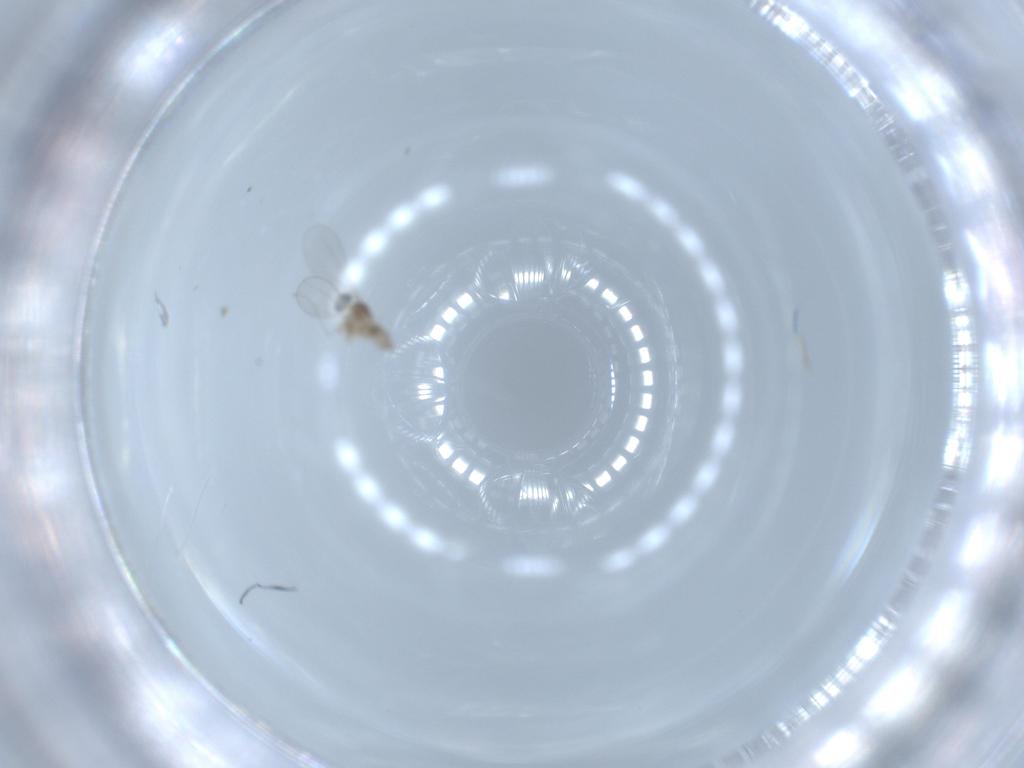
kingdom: Animalia
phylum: Arthropoda
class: Insecta
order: Diptera
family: Cecidomyiidae
